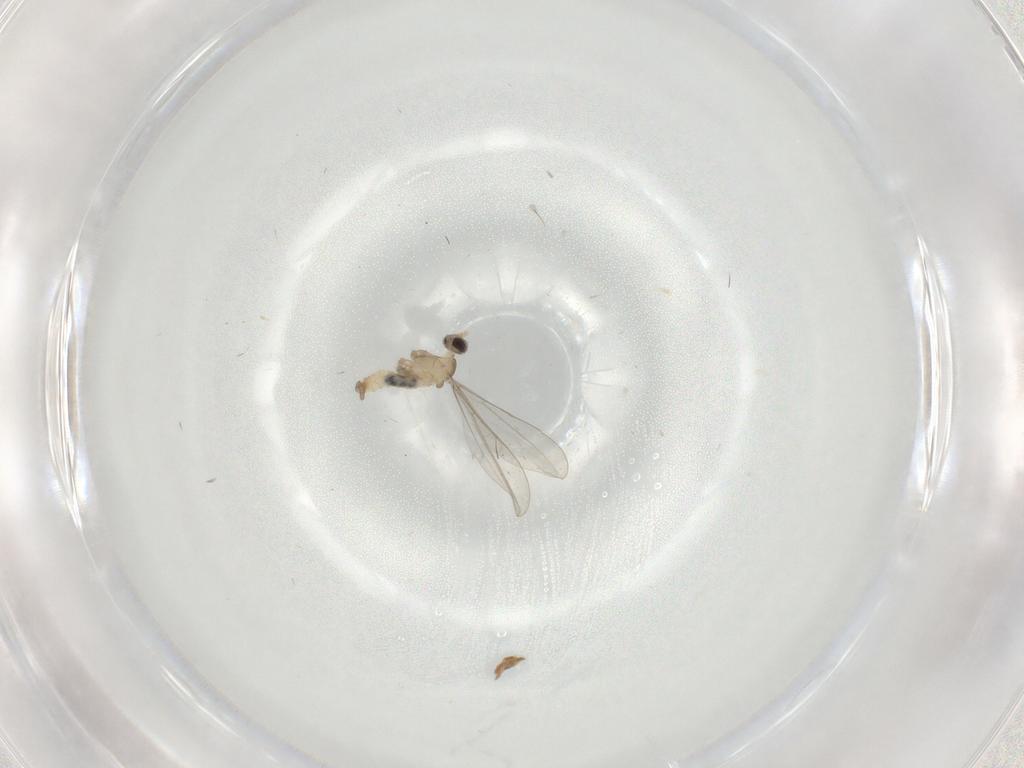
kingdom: Animalia
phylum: Arthropoda
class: Insecta
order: Diptera
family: Cecidomyiidae
